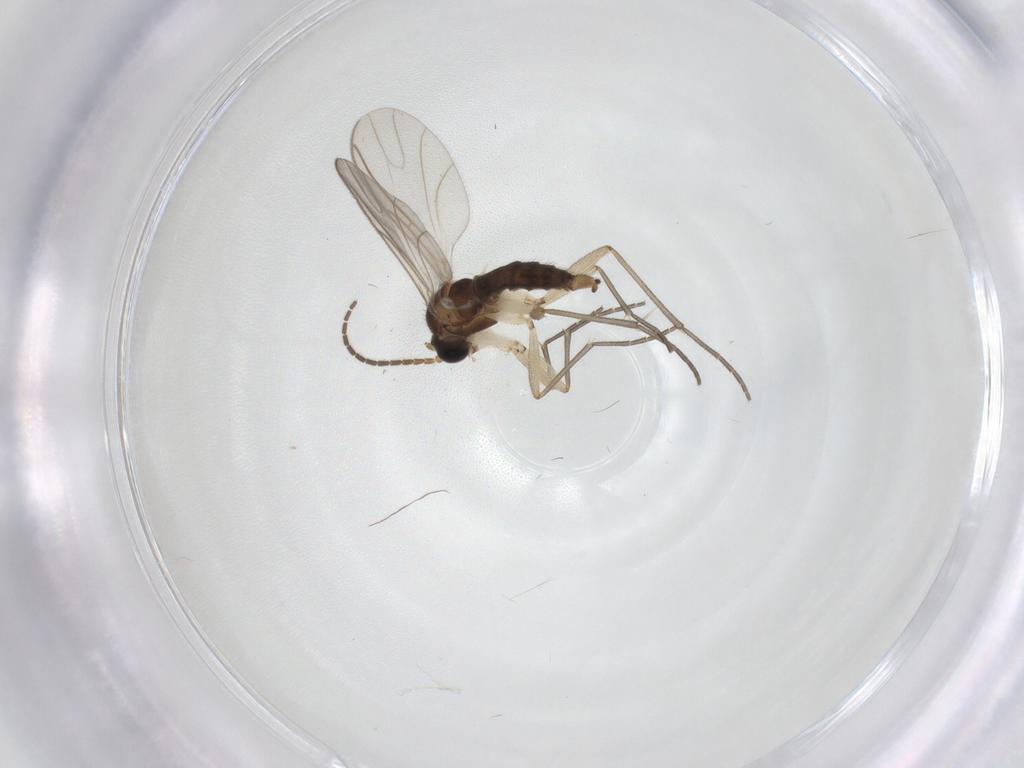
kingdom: Animalia
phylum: Arthropoda
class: Insecta
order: Diptera
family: Sciaridae
